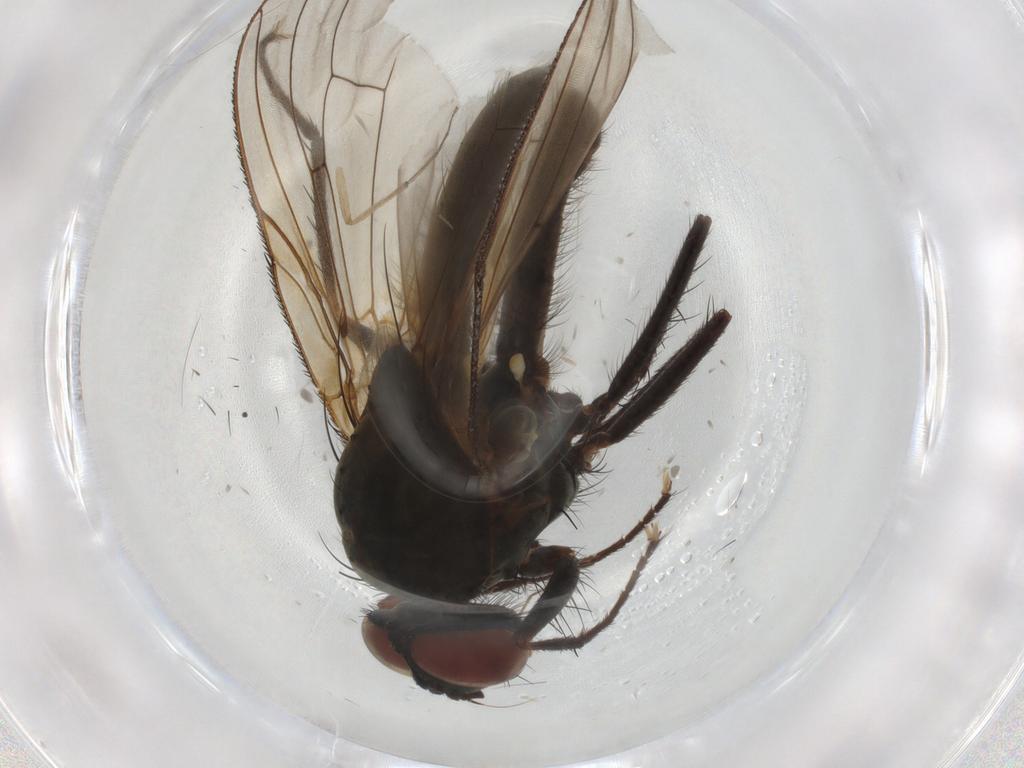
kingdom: Animalia
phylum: Arthropoda
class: Insecta
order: Diptera
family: Anthomyiidae
